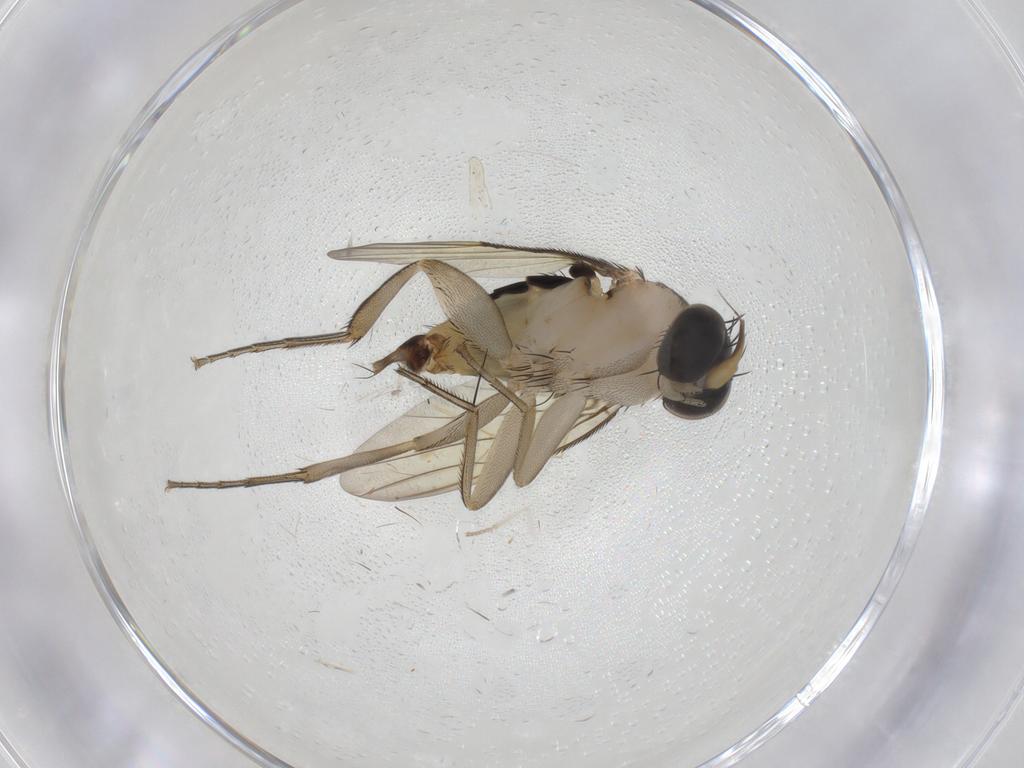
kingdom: Animalia
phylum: Arthropoda
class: Insecta
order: Diptera
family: Phoridae
